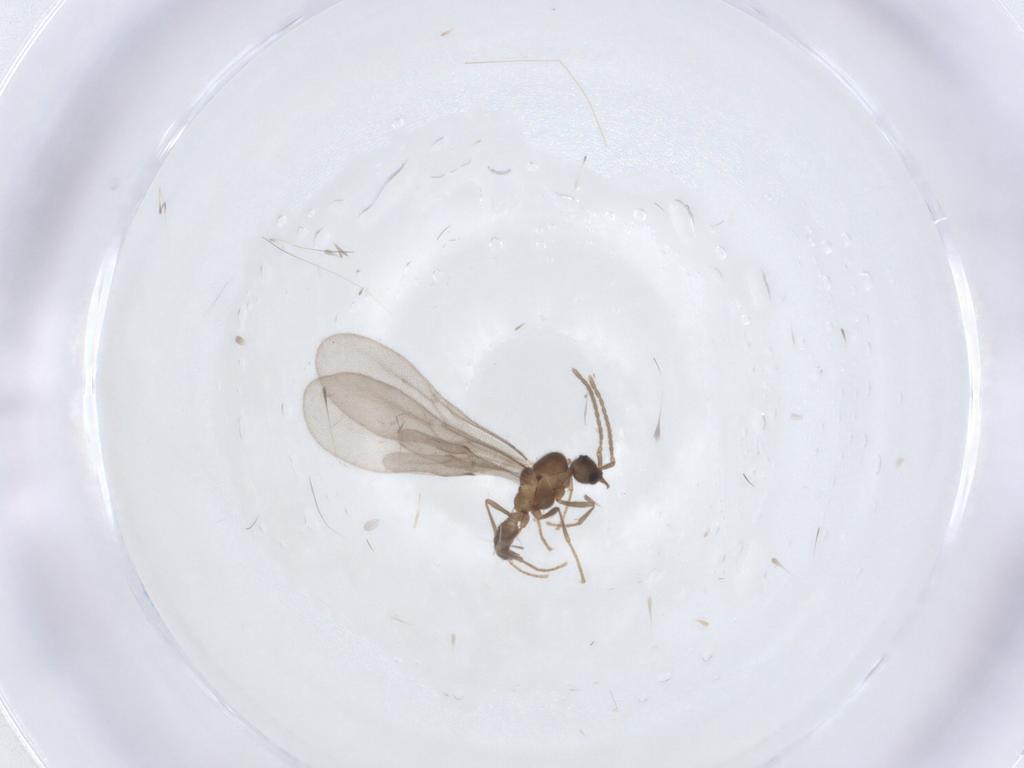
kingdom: Animalia
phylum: Arthropoda
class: Insecta
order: Hymenoptera
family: Formicidae
